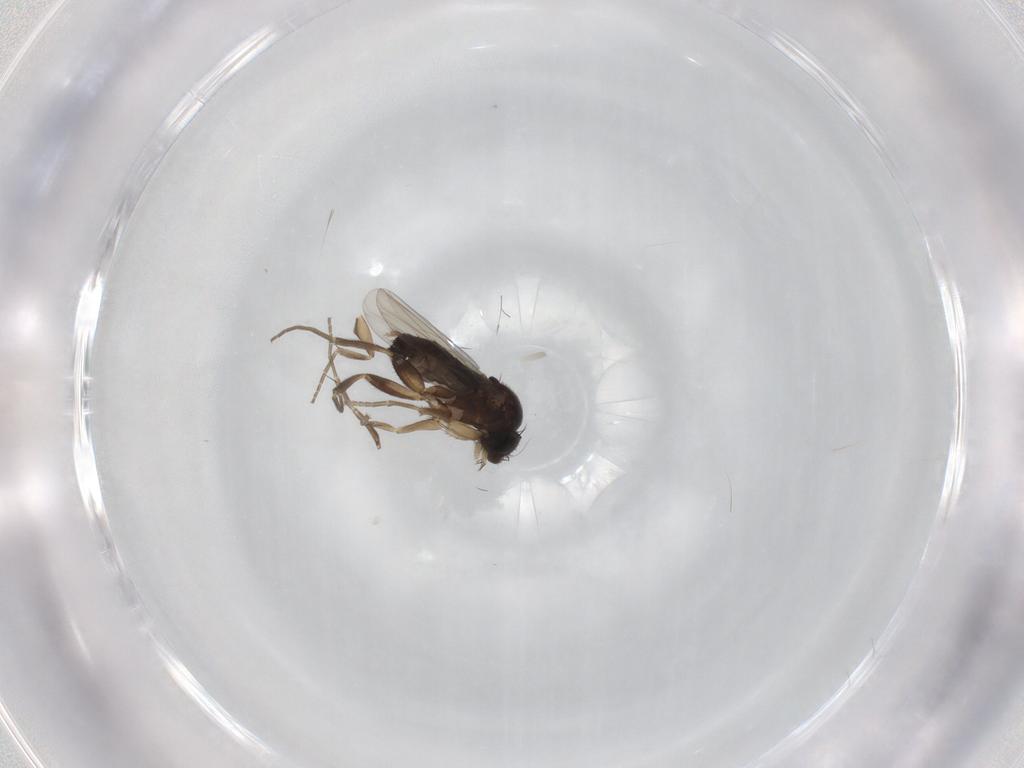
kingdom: Animalia
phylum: Arthropoda
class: Insecta
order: Diptera
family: Phoridae
